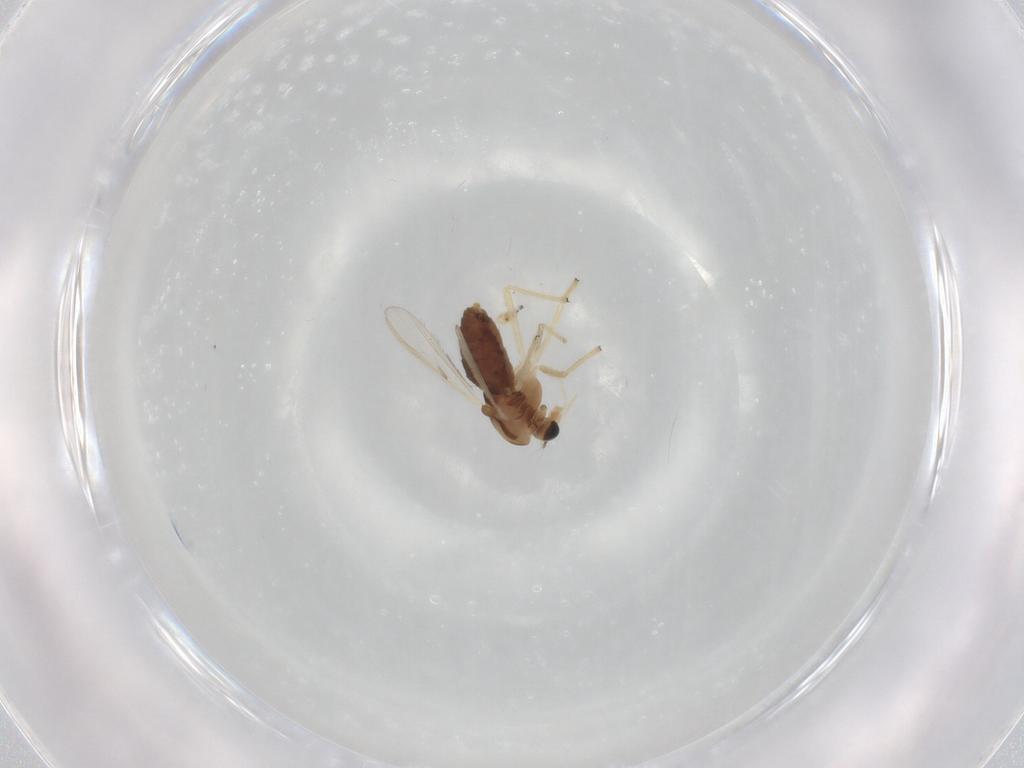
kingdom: Animalia
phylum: Arthropoda
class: Insecta
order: Diptera
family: Chironomidae
